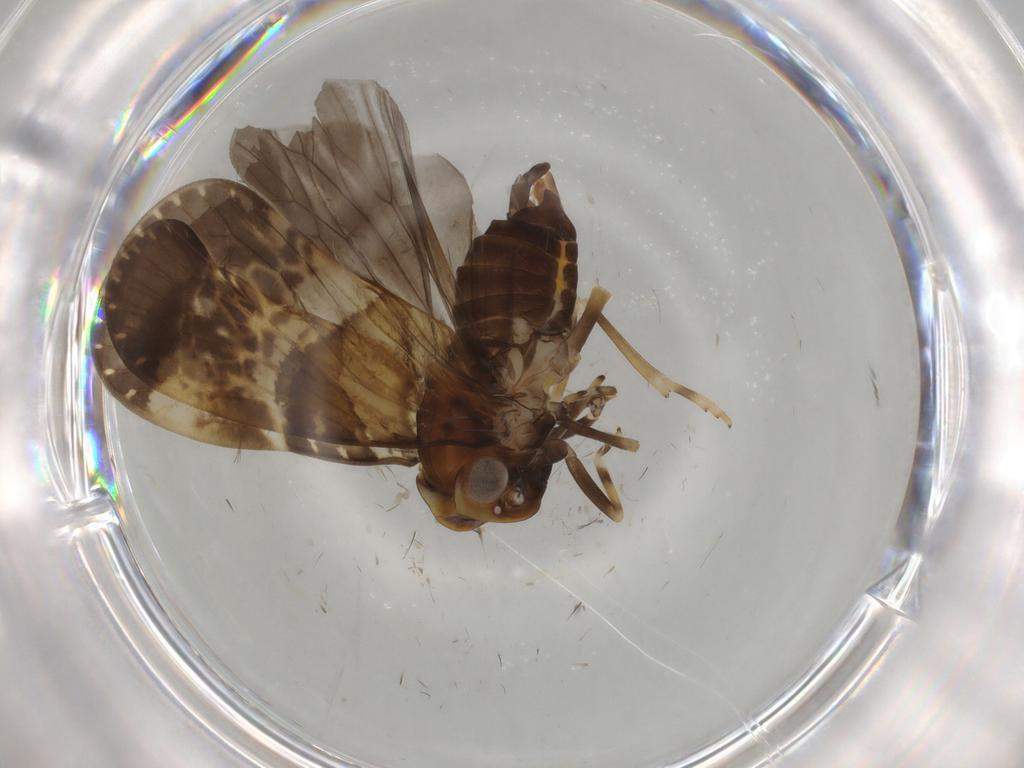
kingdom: Animalia
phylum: Arthropoda
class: Insecta
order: Hemiptera
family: Cixiidae
